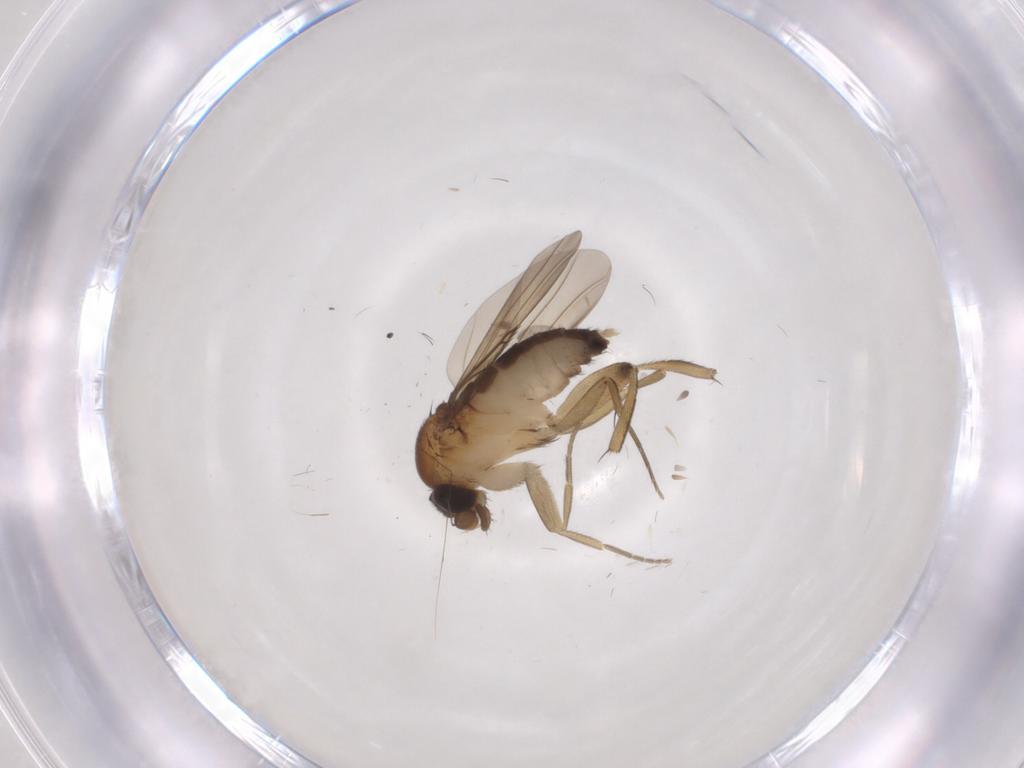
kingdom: Animalia
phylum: Arthropoda
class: Insecta
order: Diptera
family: Phoridae
